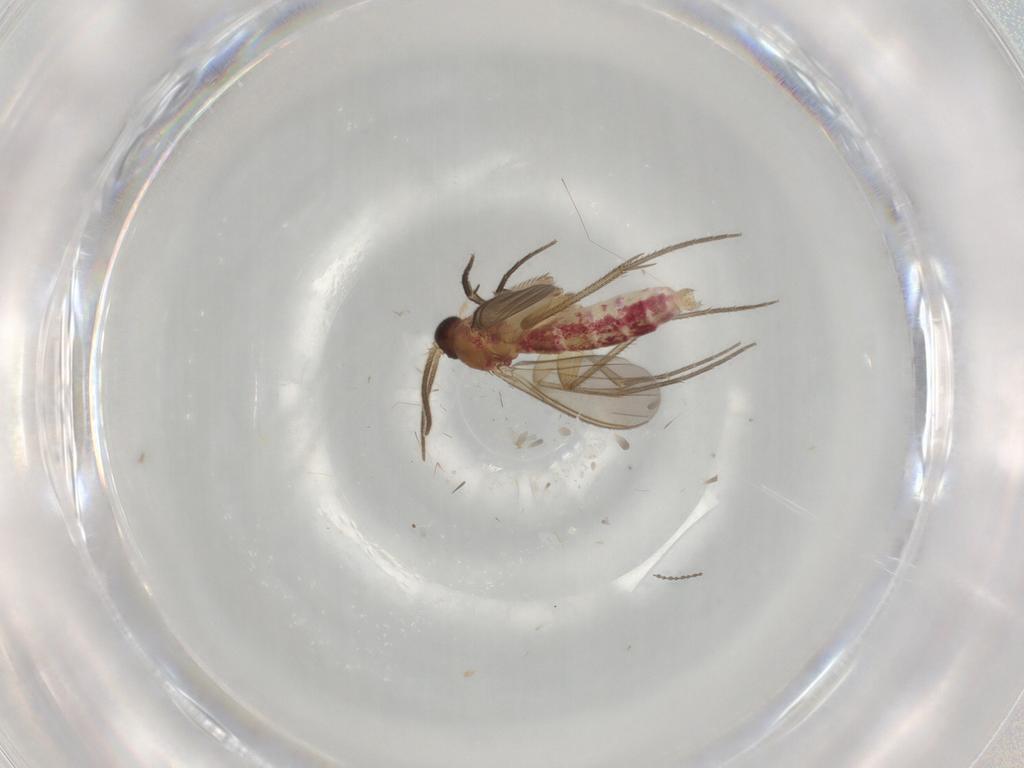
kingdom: Animalia
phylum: Arthropoda
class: Insecta
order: Diptera
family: Mycetophilidae
